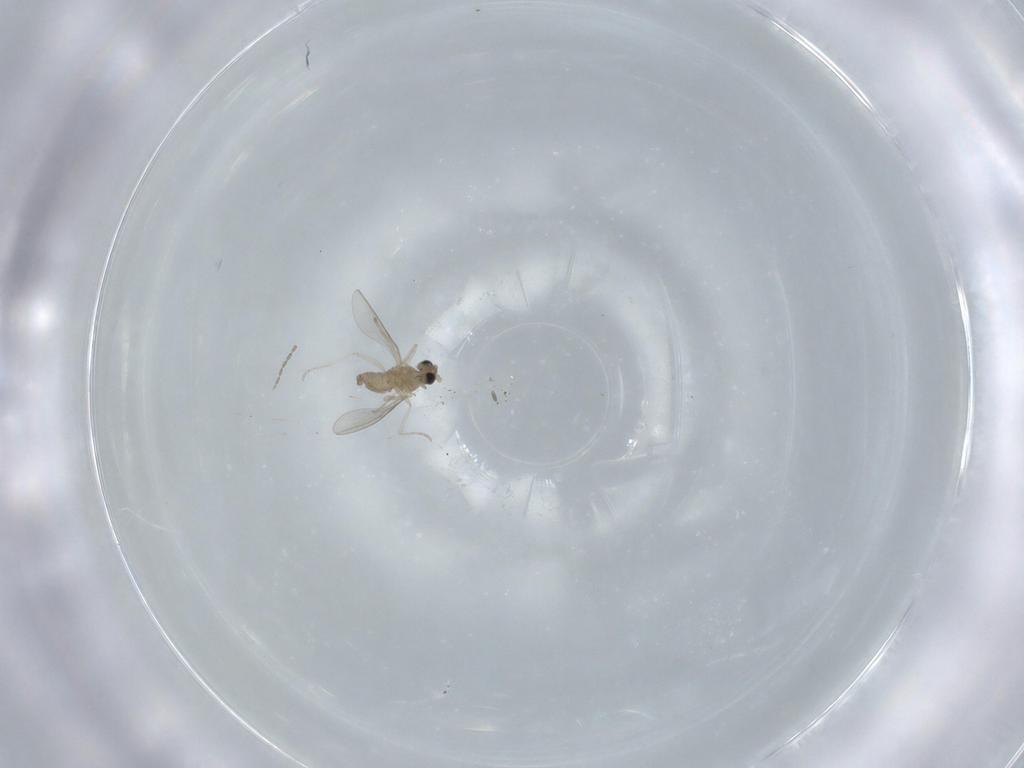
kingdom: Animalia
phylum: Arthropoda
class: Insecta
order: Diptera
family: Cecidomyiidae
